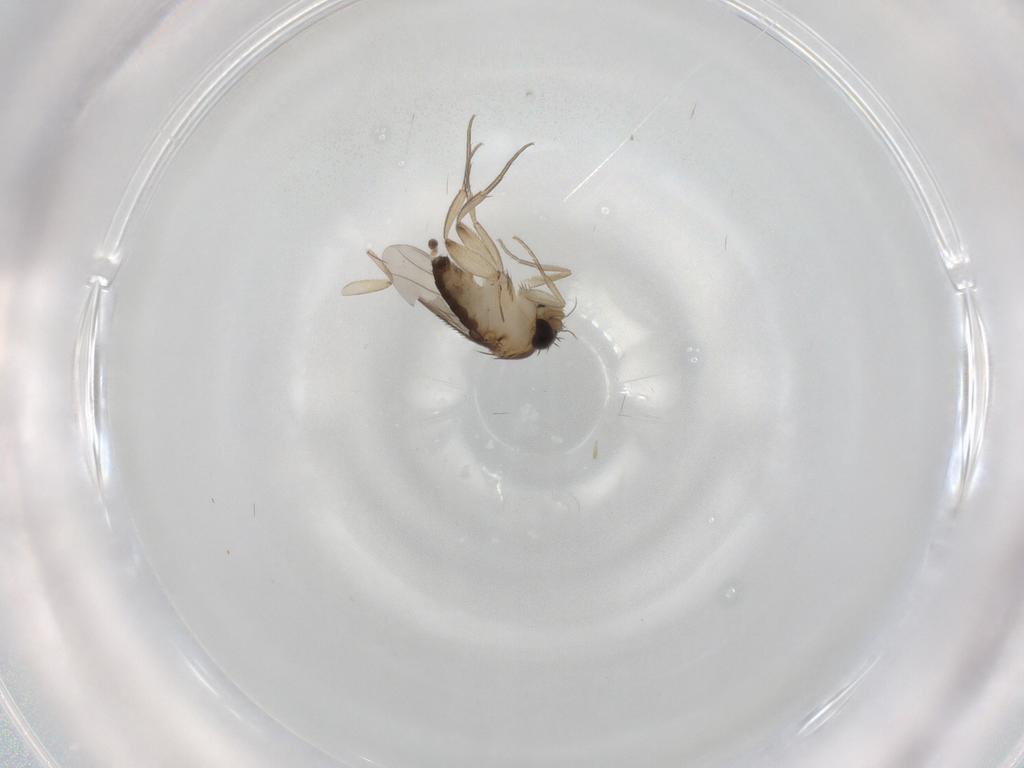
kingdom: Animalia
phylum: Arthropoda
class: Insecta
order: Diptera
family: Phoridae
